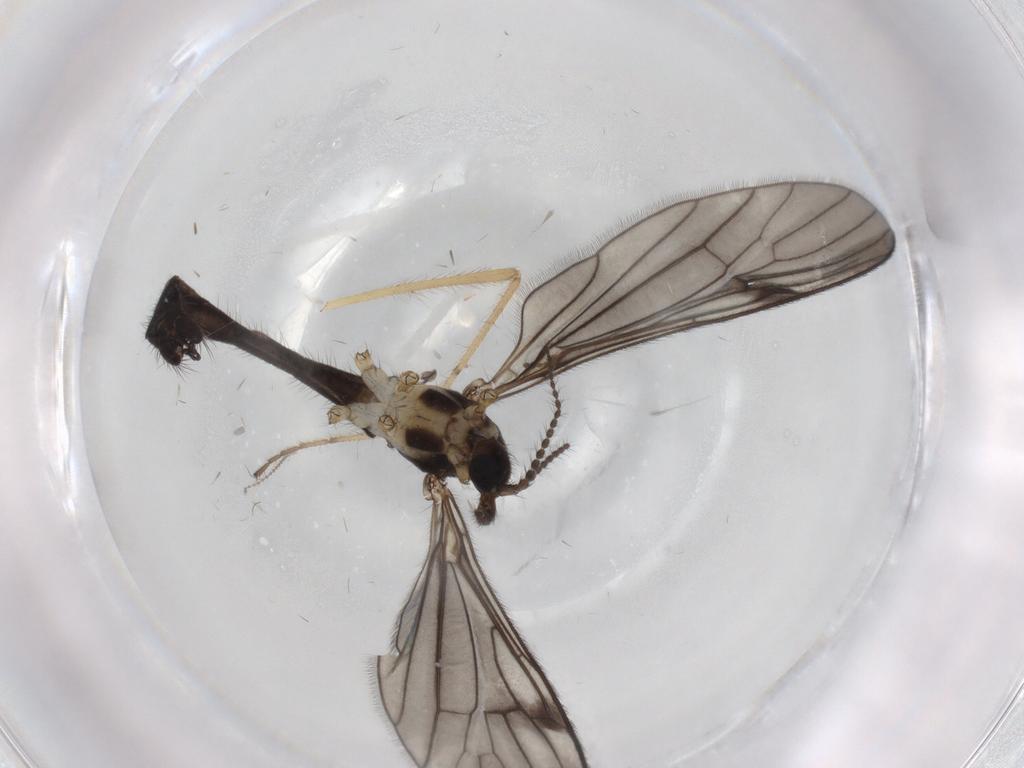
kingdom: Animalia
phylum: Arthropoda
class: Insecta
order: Diptera
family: Limoniidae
